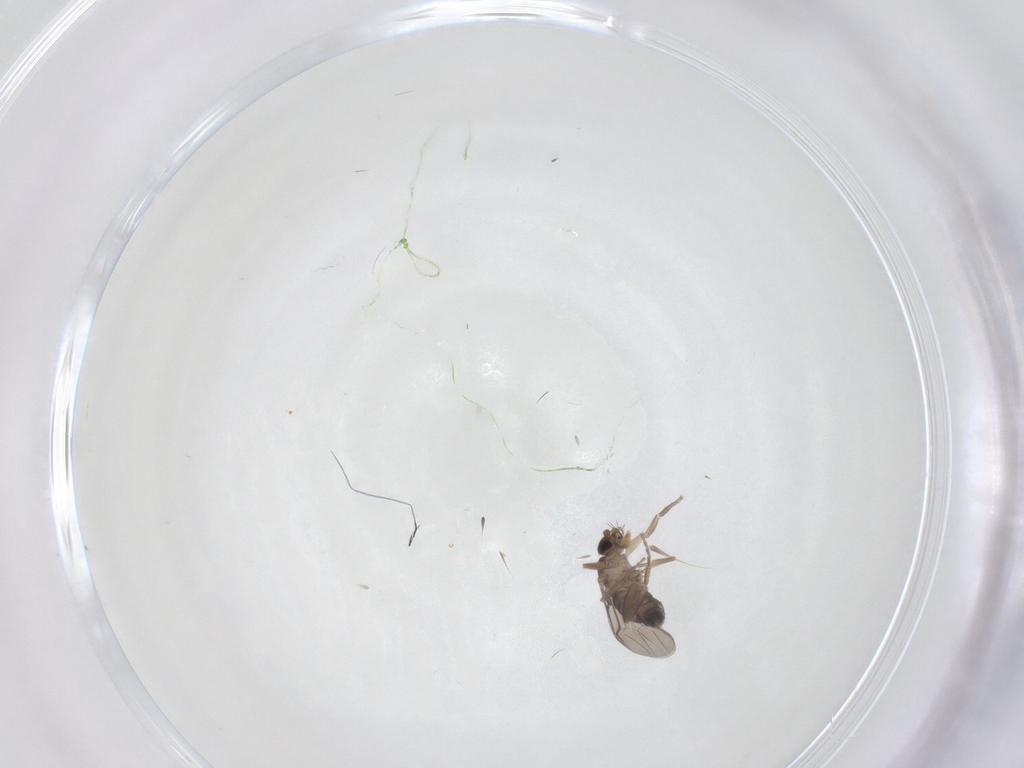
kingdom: Animalia
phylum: Arthropoda
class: Insecta
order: Diptera
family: Phoridae
